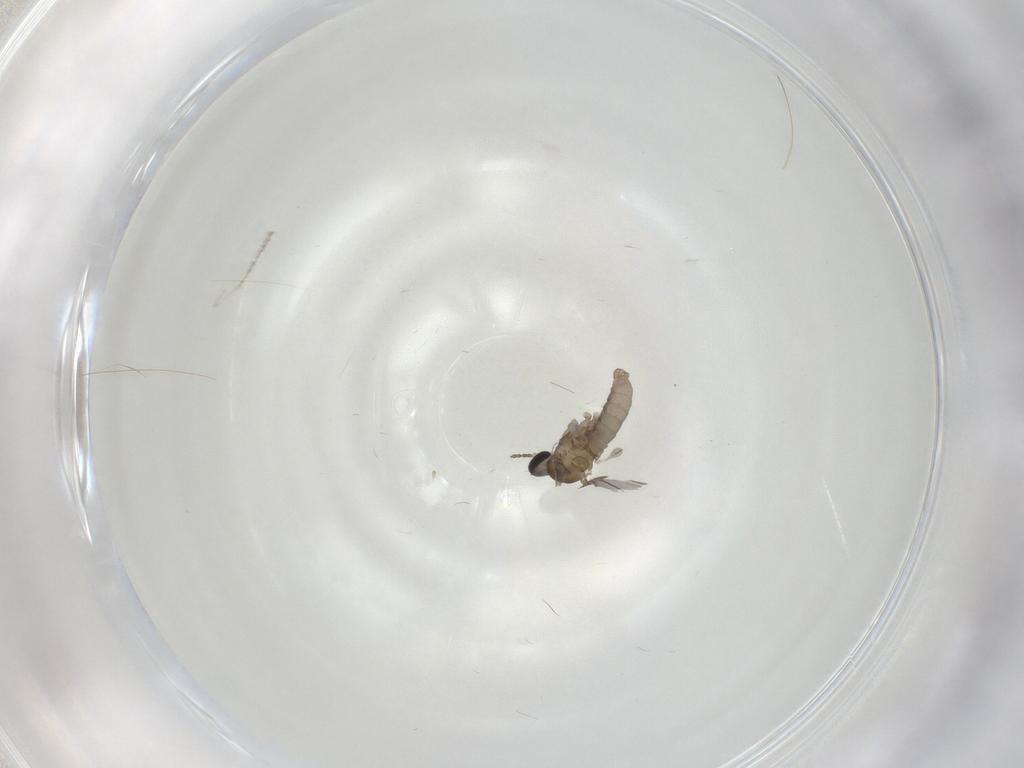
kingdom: Animalia
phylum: Arthropoda
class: Insecta
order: Diptera
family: Cecidomyiidae
